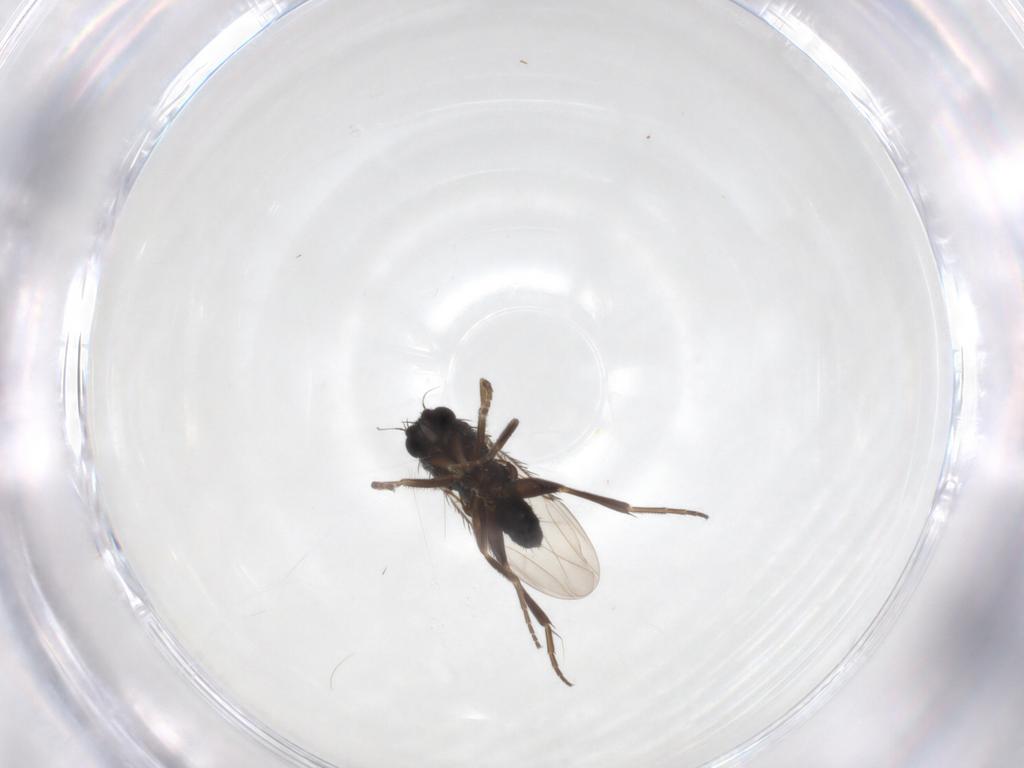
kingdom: Animalia
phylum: Arthropoda
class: Insecta
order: Diptera
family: Phoridae
